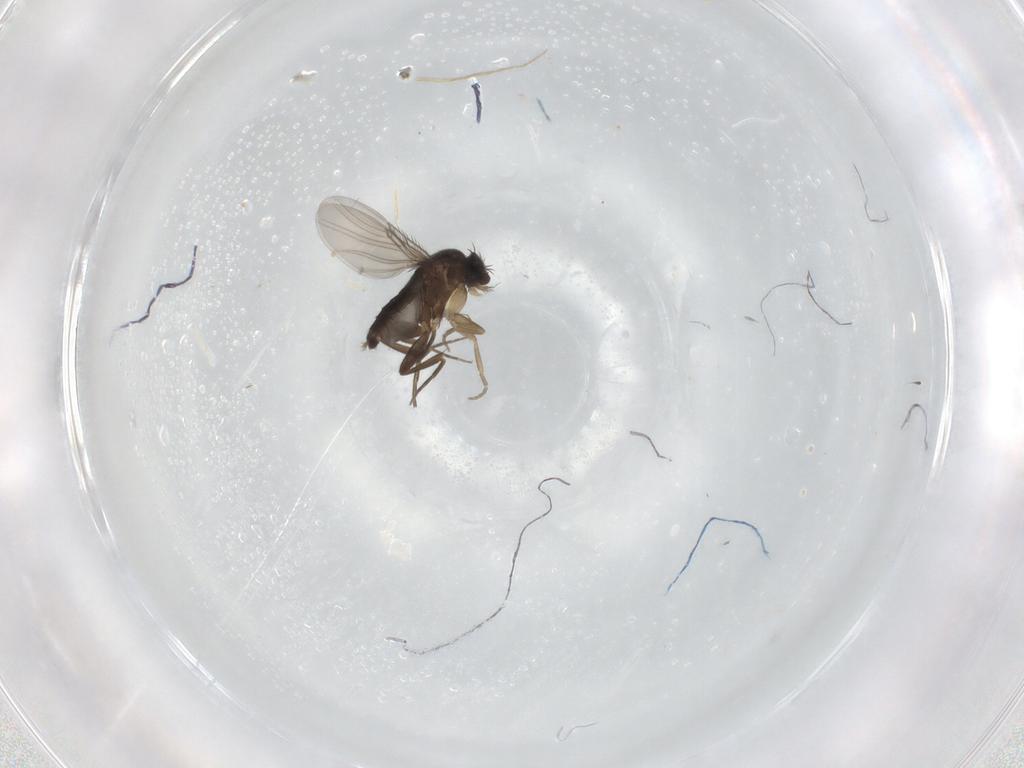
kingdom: Animalia
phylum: Arthropoda
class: Insecta
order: Diptera
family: Phoridae
